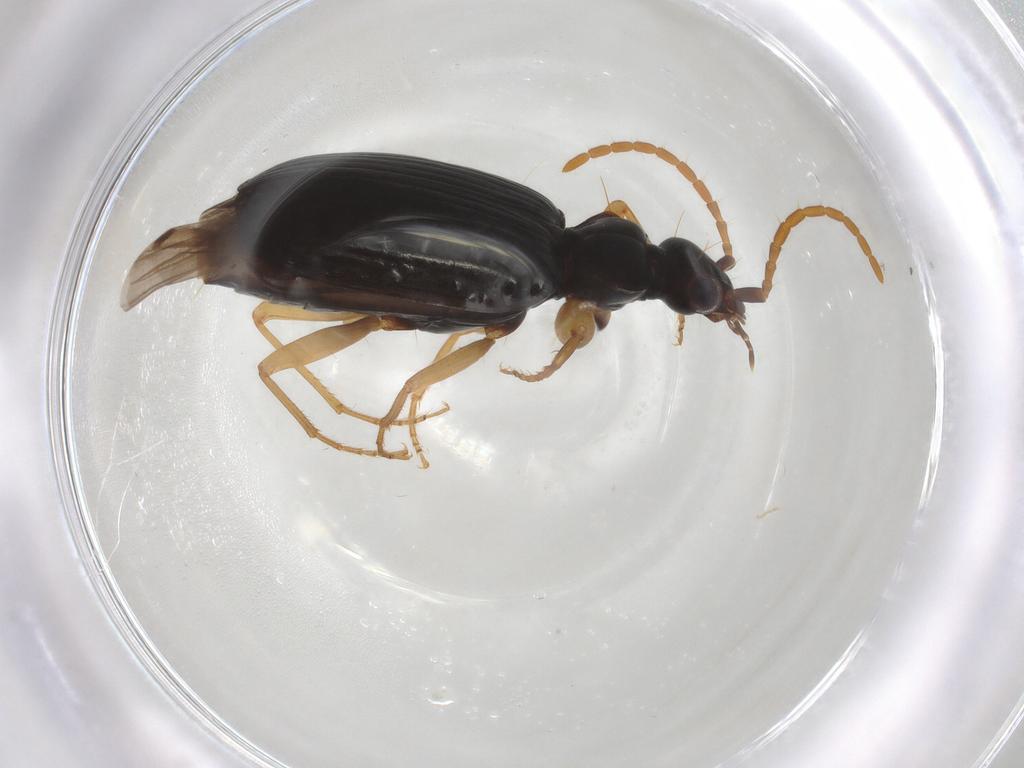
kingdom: Animalia
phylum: Arthropoda
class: Insecta
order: Coleoptera
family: Carabidae
